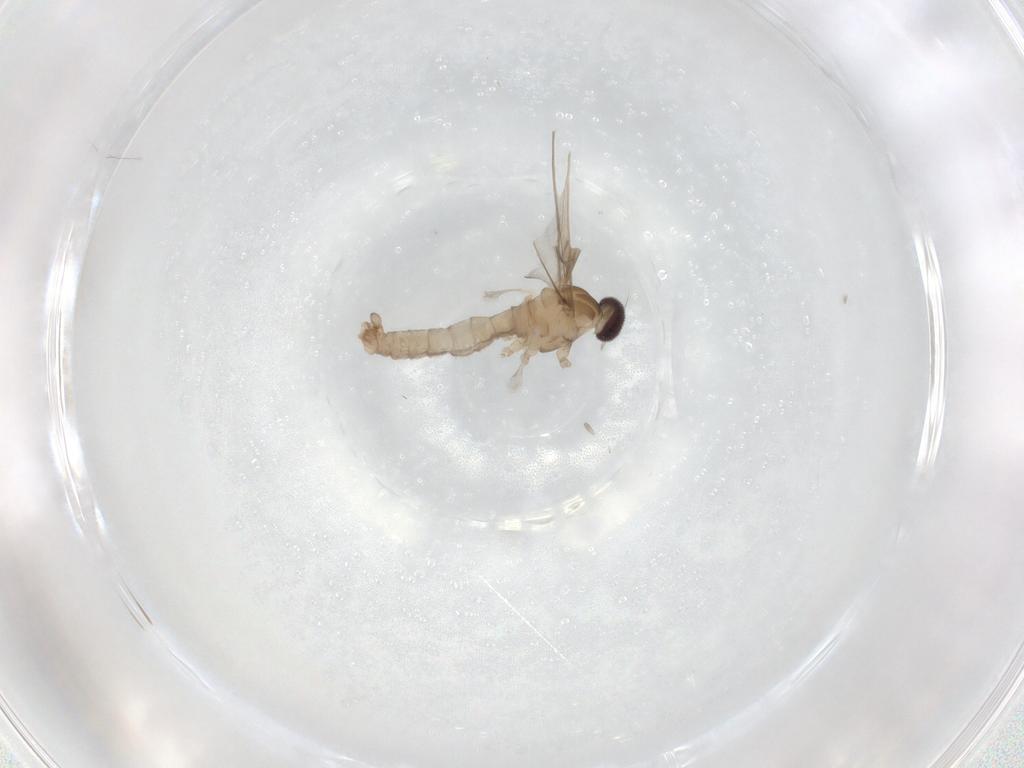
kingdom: Animalia
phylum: Arthropoda
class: Insecta
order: Diptera
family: Cecidomyiidae
